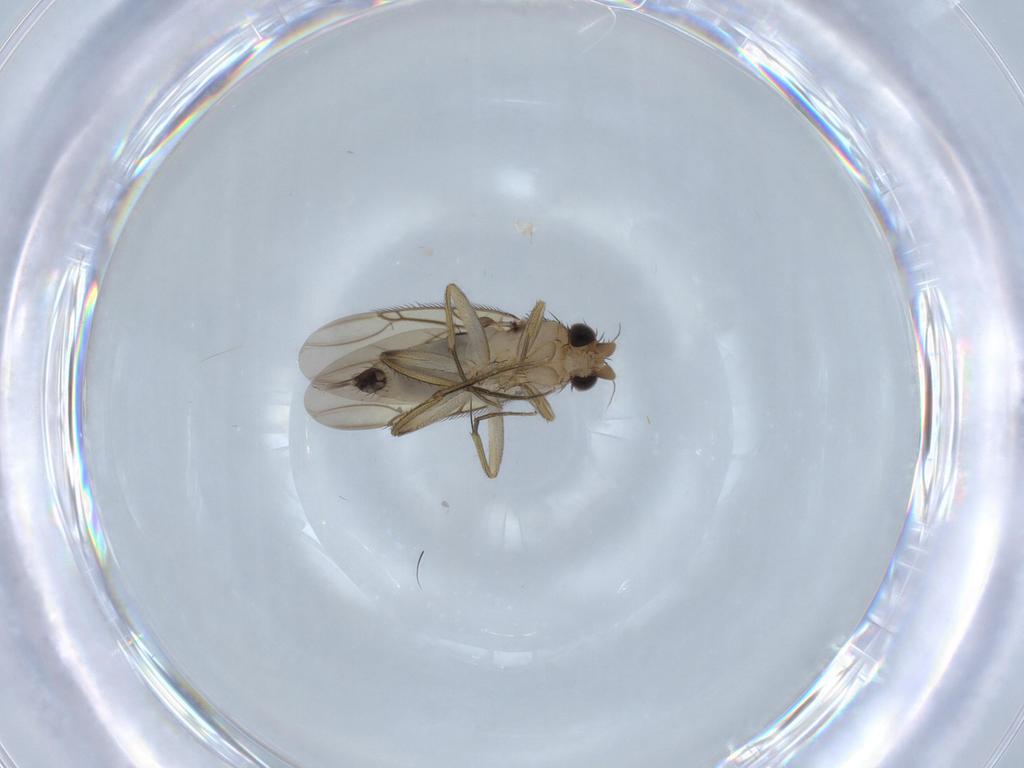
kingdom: Animalia
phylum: Arthropoda
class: Insecta
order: Diptera
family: Phoridae
